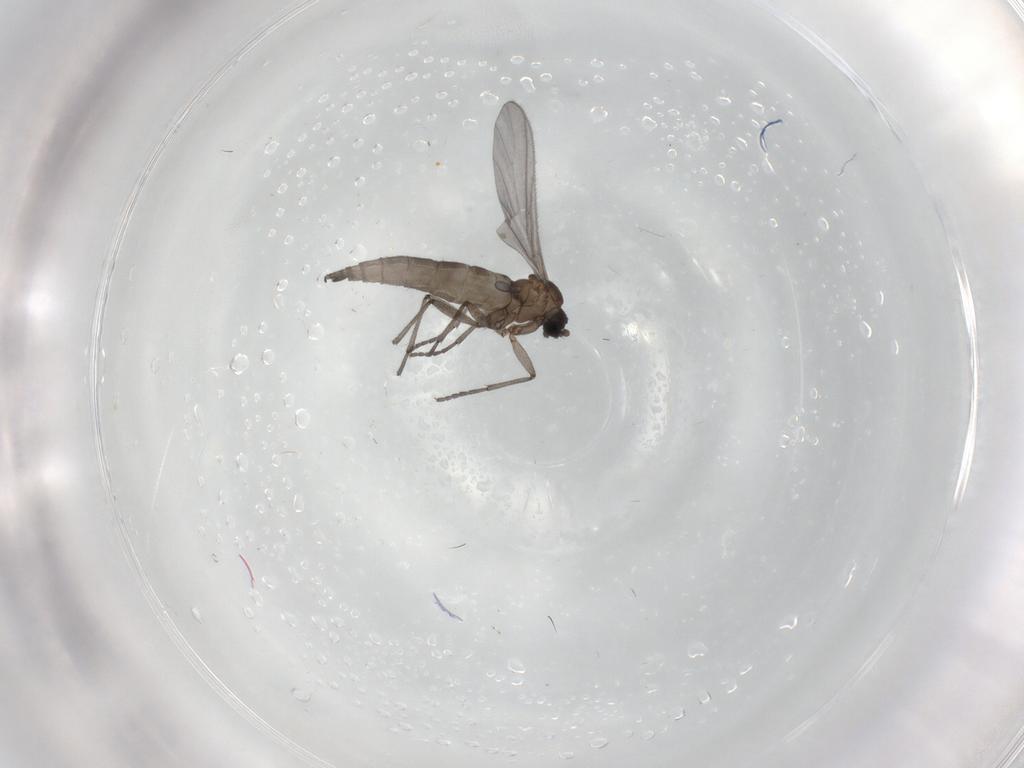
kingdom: Animalia
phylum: Arthropoda
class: Insecta
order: Diptera
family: Sciaridae
